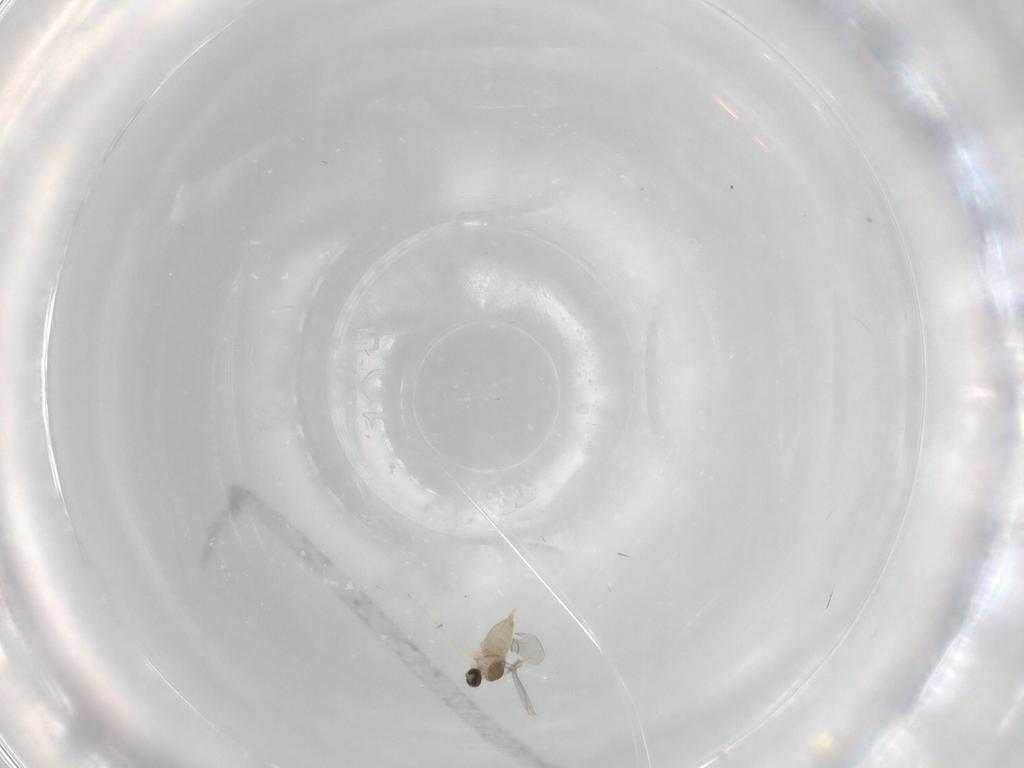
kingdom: Animalia
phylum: Arthropoda
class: Insecta
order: Diptera
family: Cecidomyiidae
